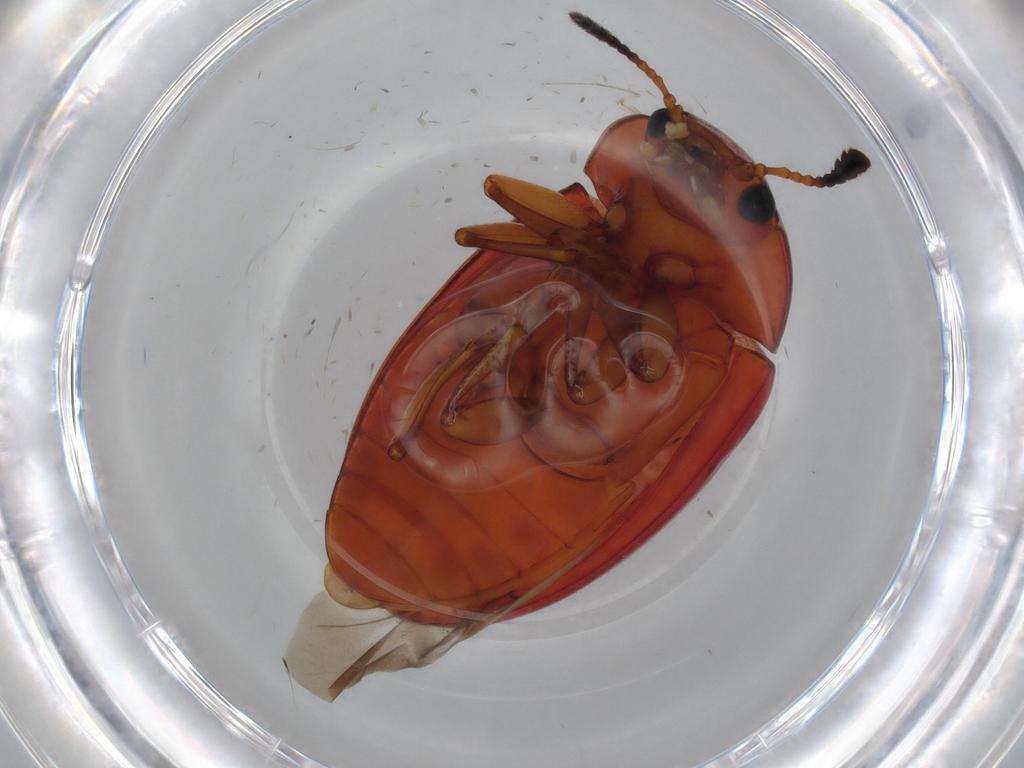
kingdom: Animalia
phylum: Arthropoda
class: Insecta
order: Coleoptera
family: Erotylidae
